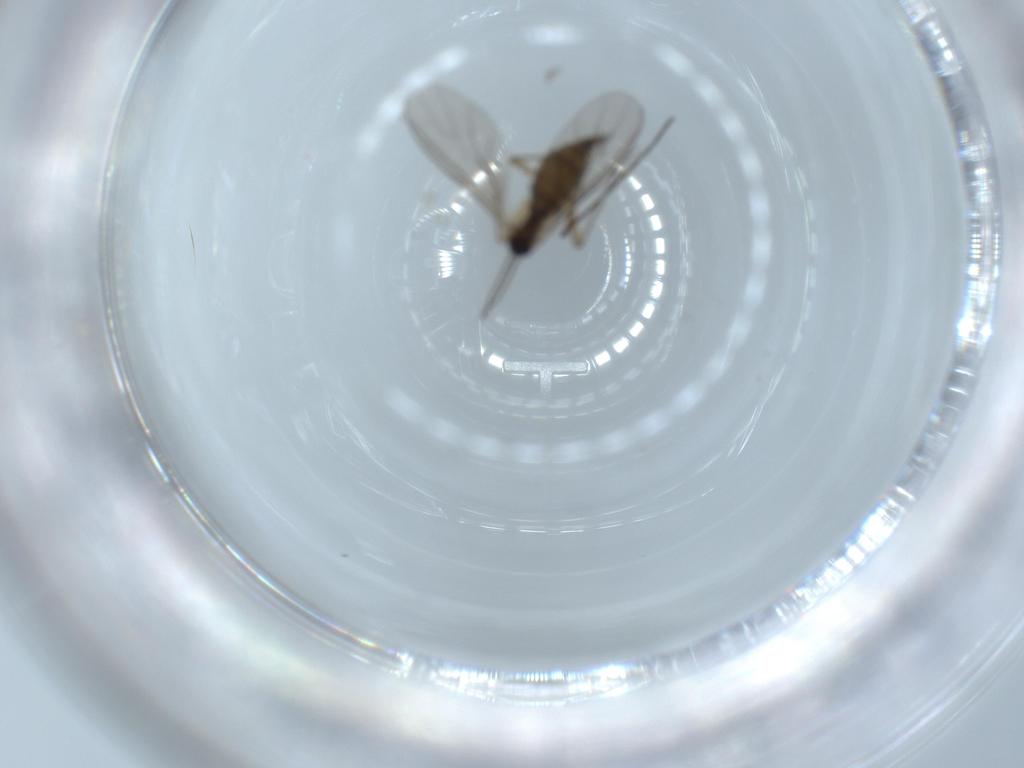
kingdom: Animalia
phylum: Arthropoda
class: Insecta
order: Diptera
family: Sciaridae
